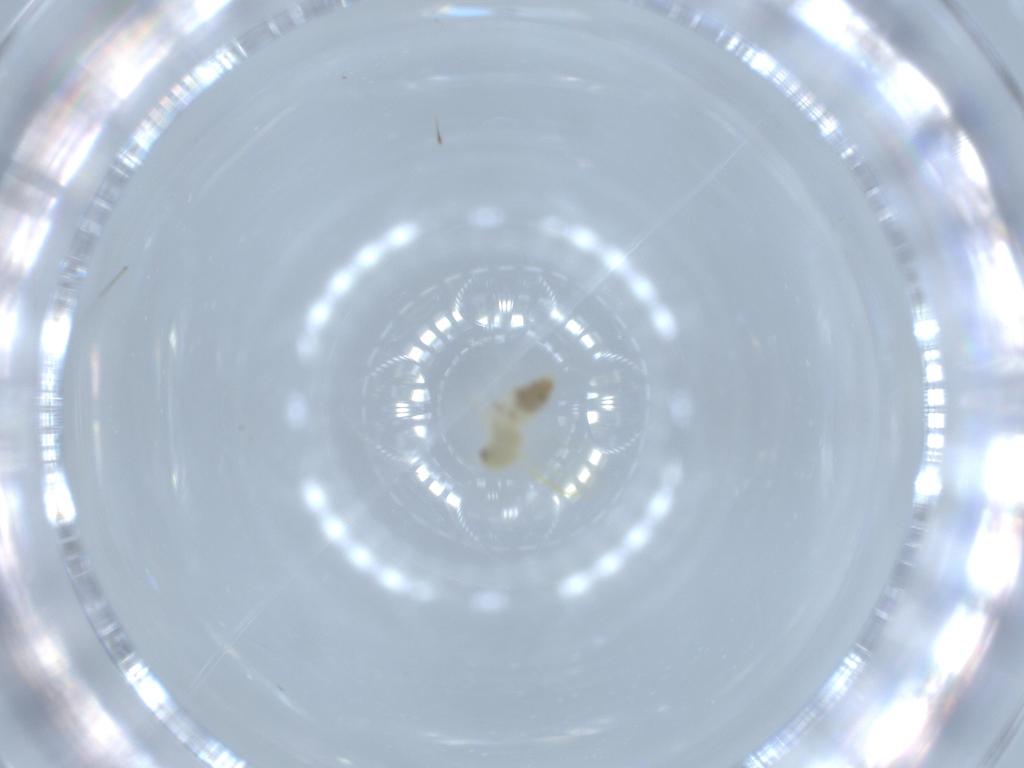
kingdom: Animalia
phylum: Arthropoda
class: Insecta
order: Hemiptera
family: Aleyrodidae
